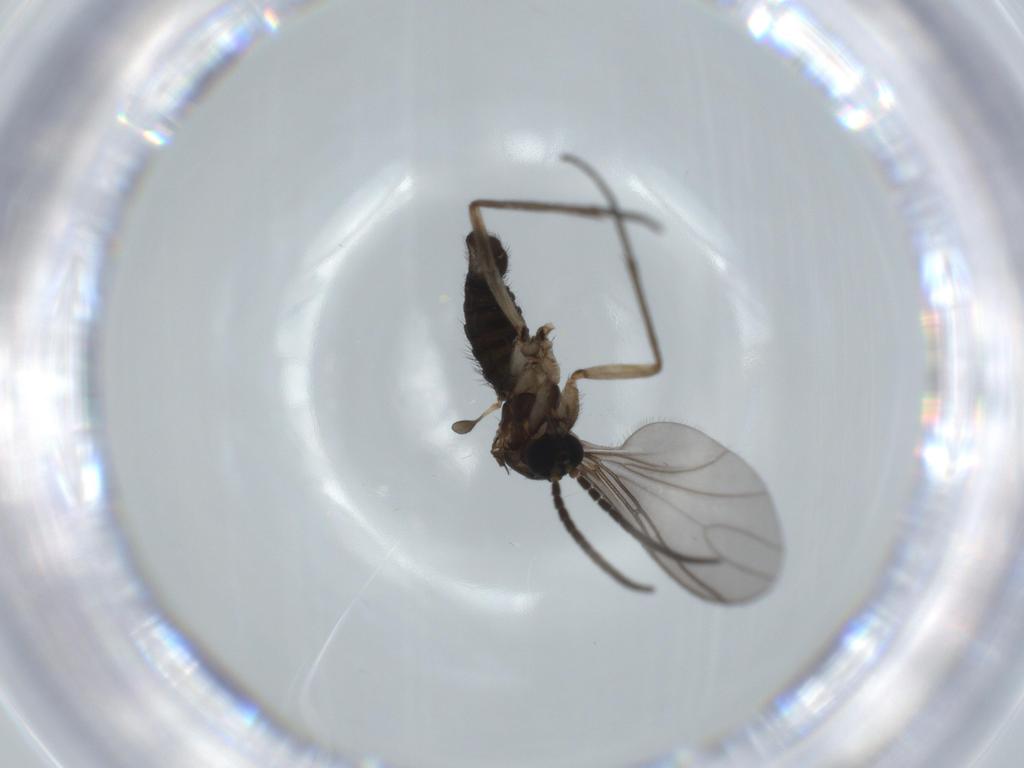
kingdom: Animalia
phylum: Arthropoda
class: Insecta
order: Diptera
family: Sciaridae
